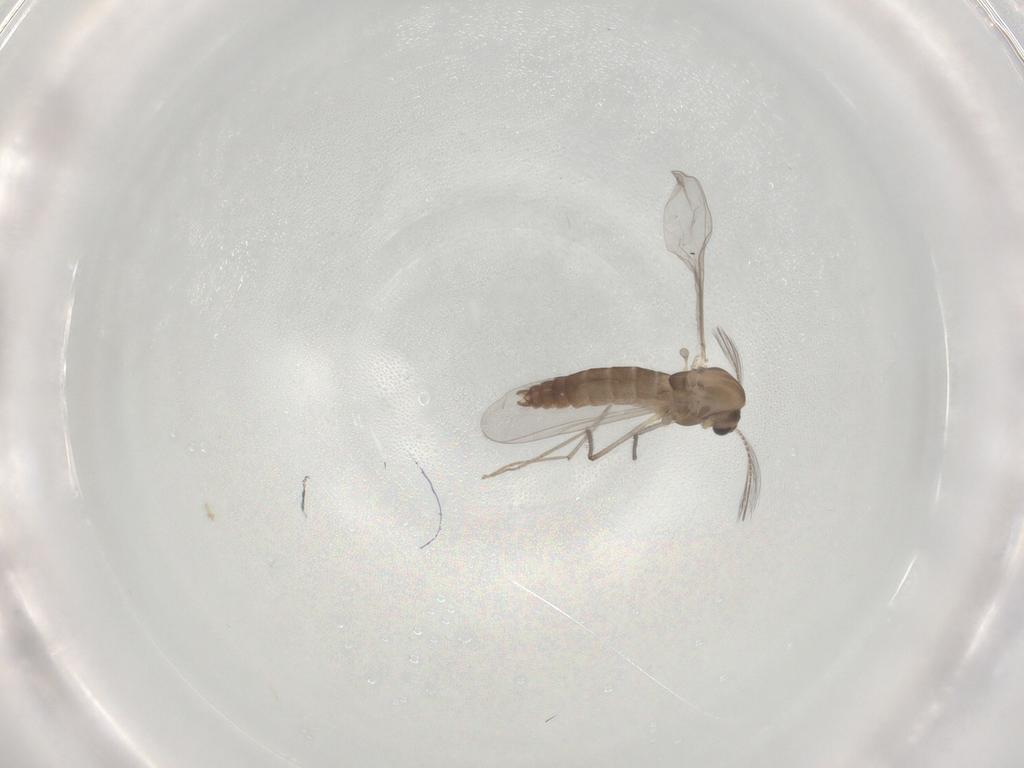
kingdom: Animalia
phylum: Arthropoda
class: Insecta
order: Diptera
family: Chironomidae
